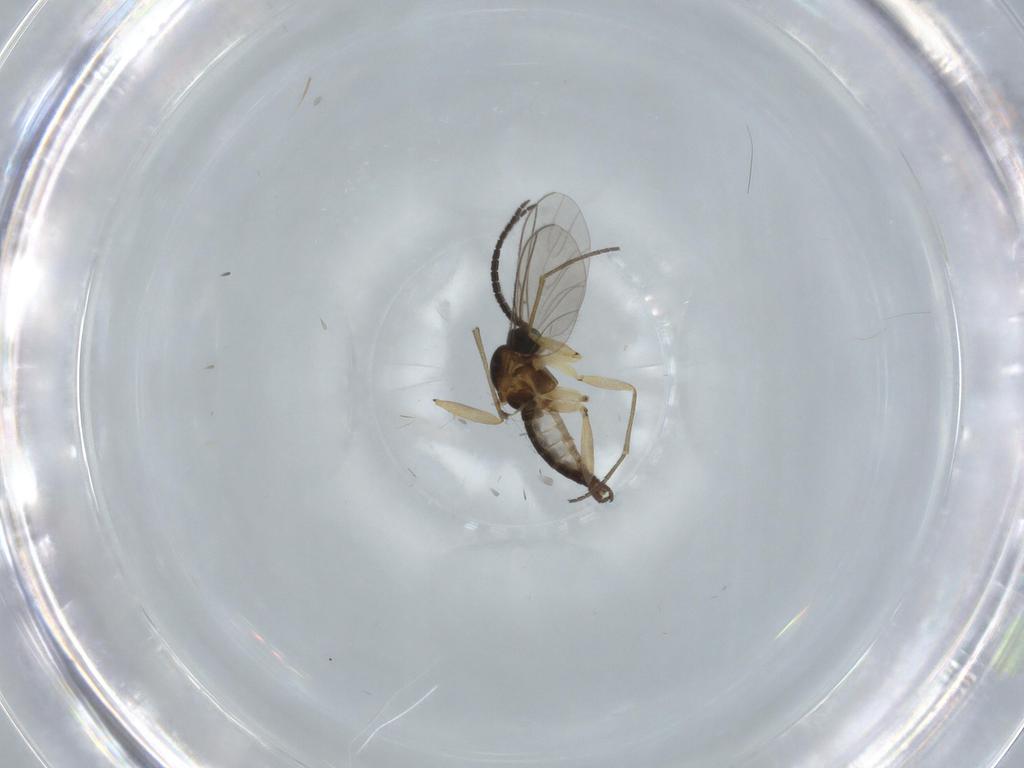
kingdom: Animalia
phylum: Arthropoda
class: Insecta
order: Diptera
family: Sciaridae
